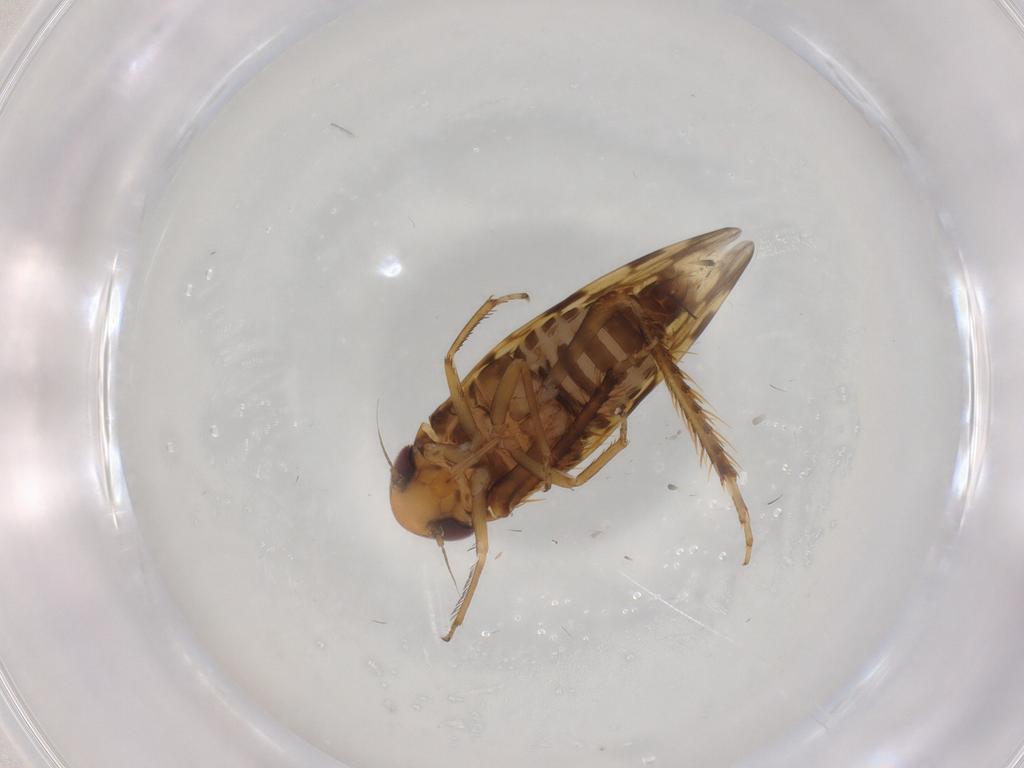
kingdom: Animalia
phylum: Arthropoda
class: Insecta
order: Hemiptera
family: Cicadellidae
